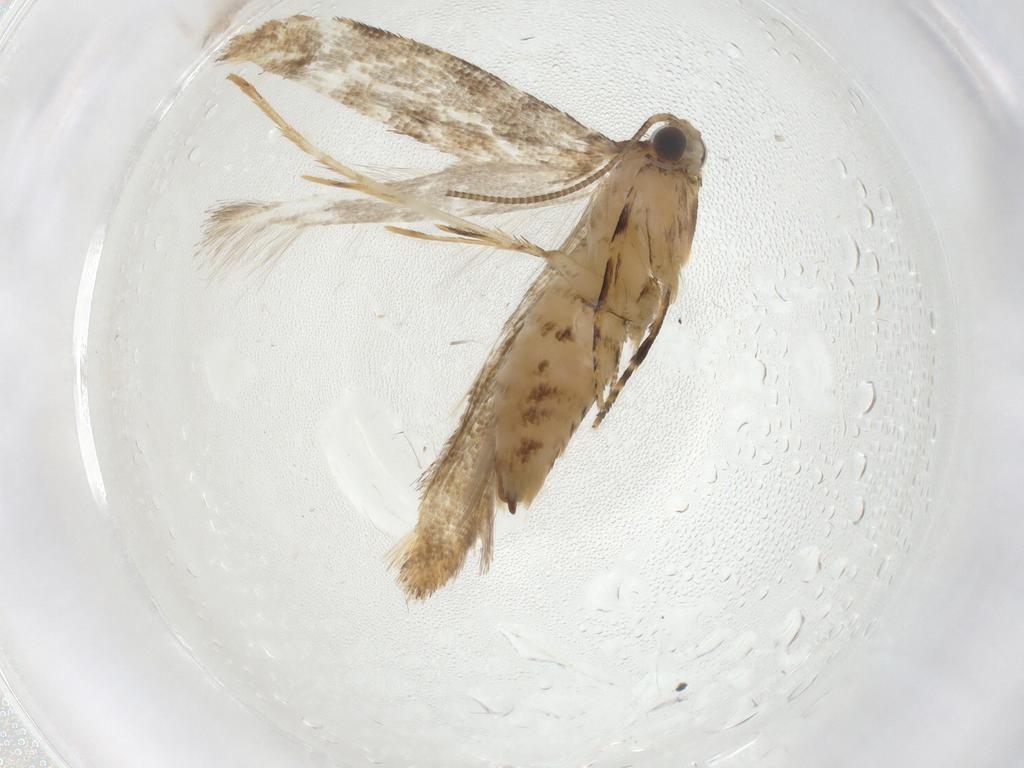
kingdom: Animalia
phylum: Arthropoda
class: Insecta
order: Lepidoptera
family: Tineidae
